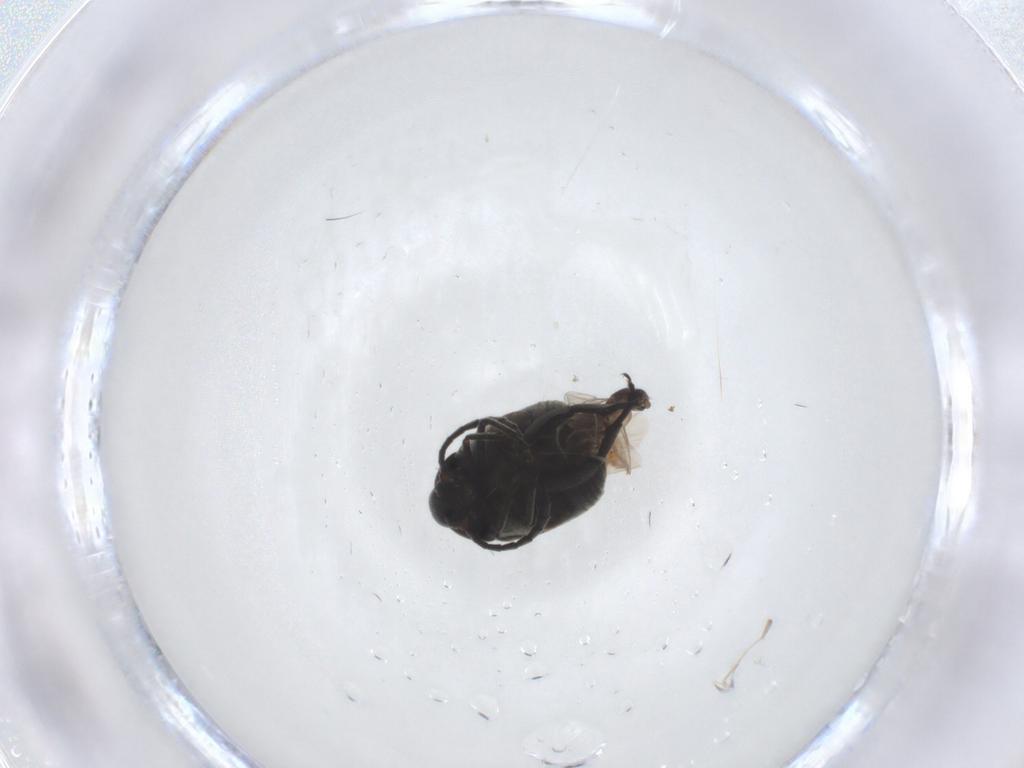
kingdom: Animalia
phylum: Arthropoda
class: Insecta
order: Coleoptera
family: Chrysomelidae
